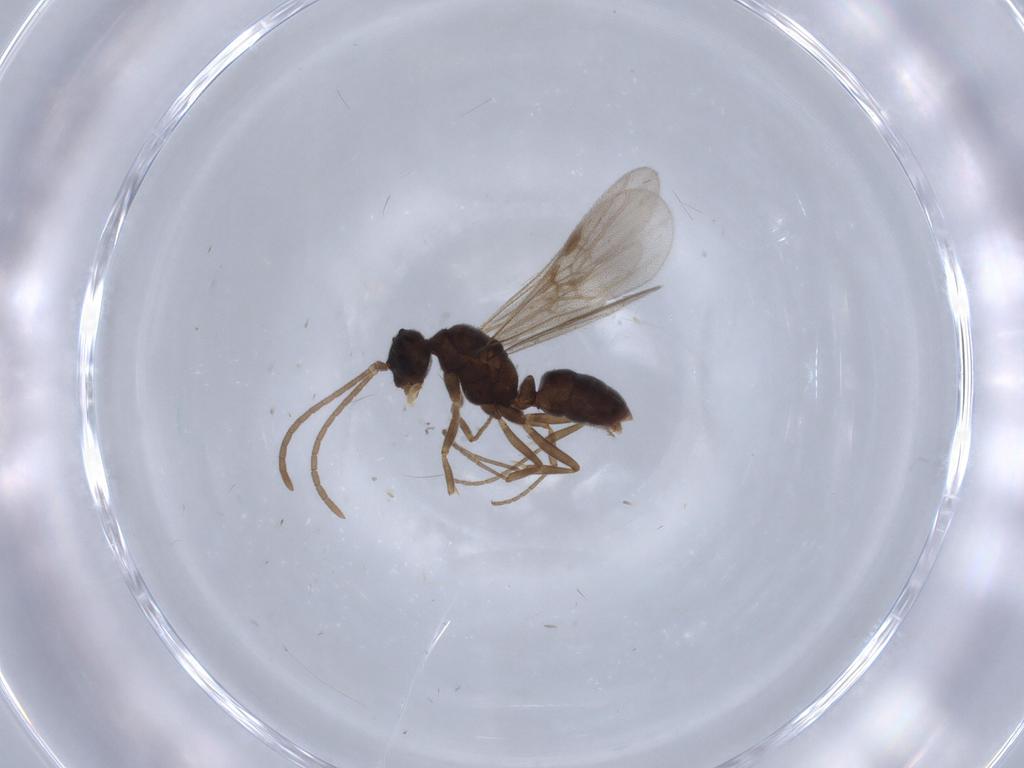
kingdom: Animalia
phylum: Arthropoda
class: Insecta
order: Hymenoptera
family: Formicidae
